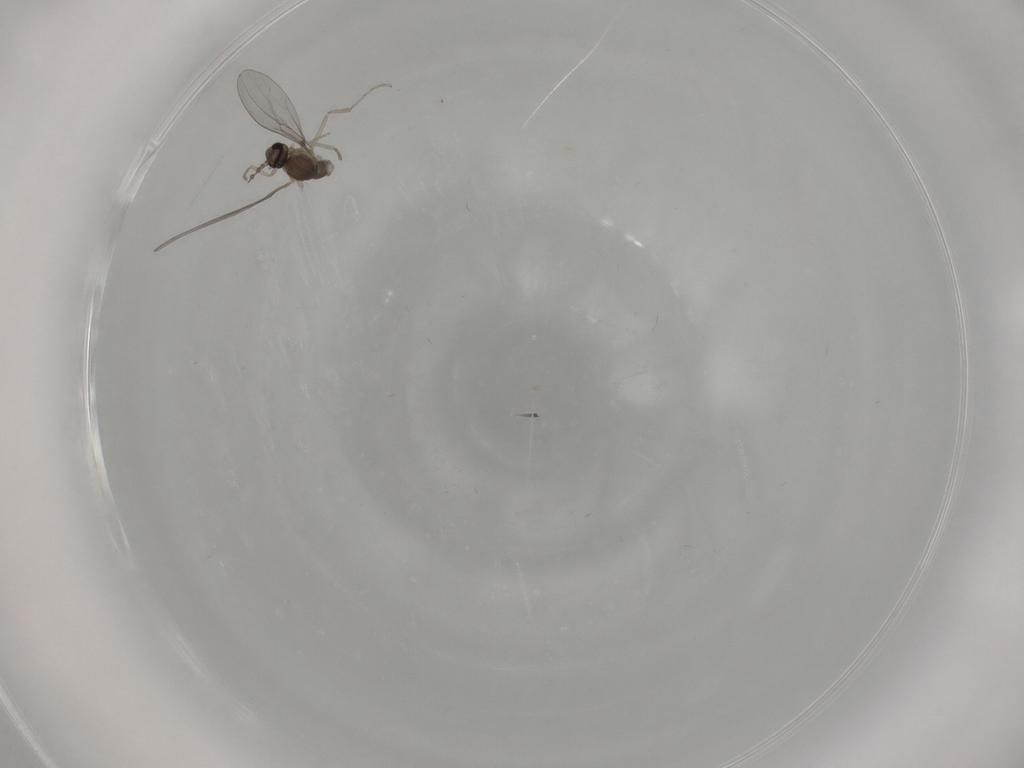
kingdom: Animalia
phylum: Arthropoda
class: Insecta
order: Diptera
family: Cecidomyiidae
